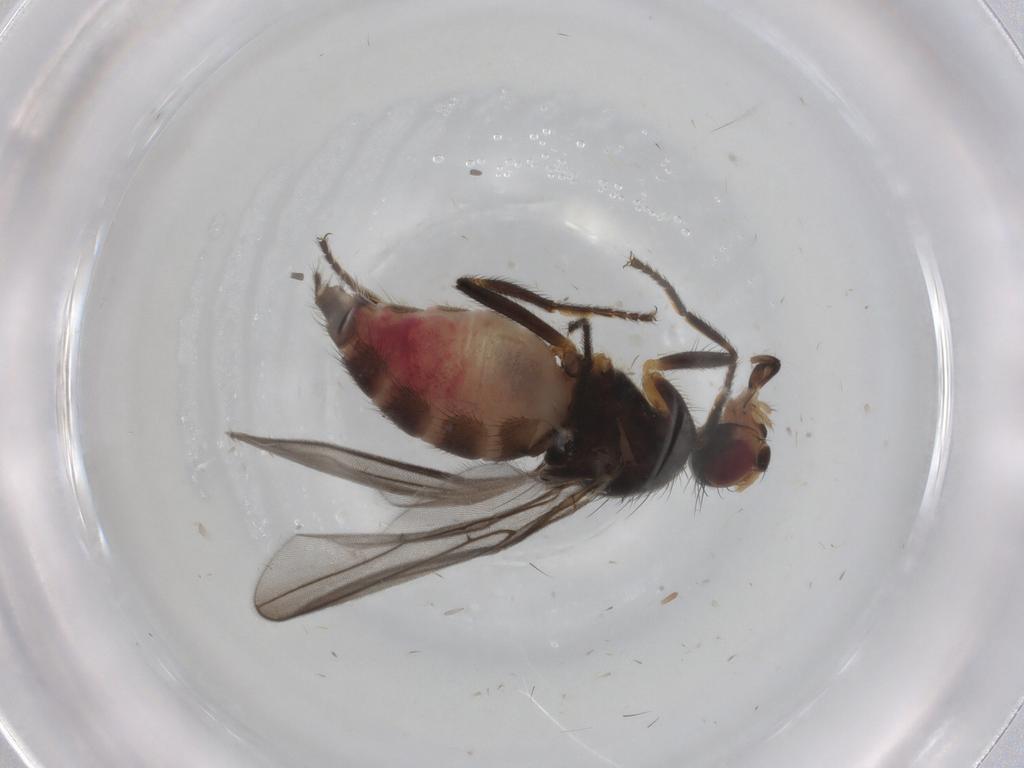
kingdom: Animalia
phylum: Arthropoda
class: Insecta
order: Diptera
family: Chloropidae
